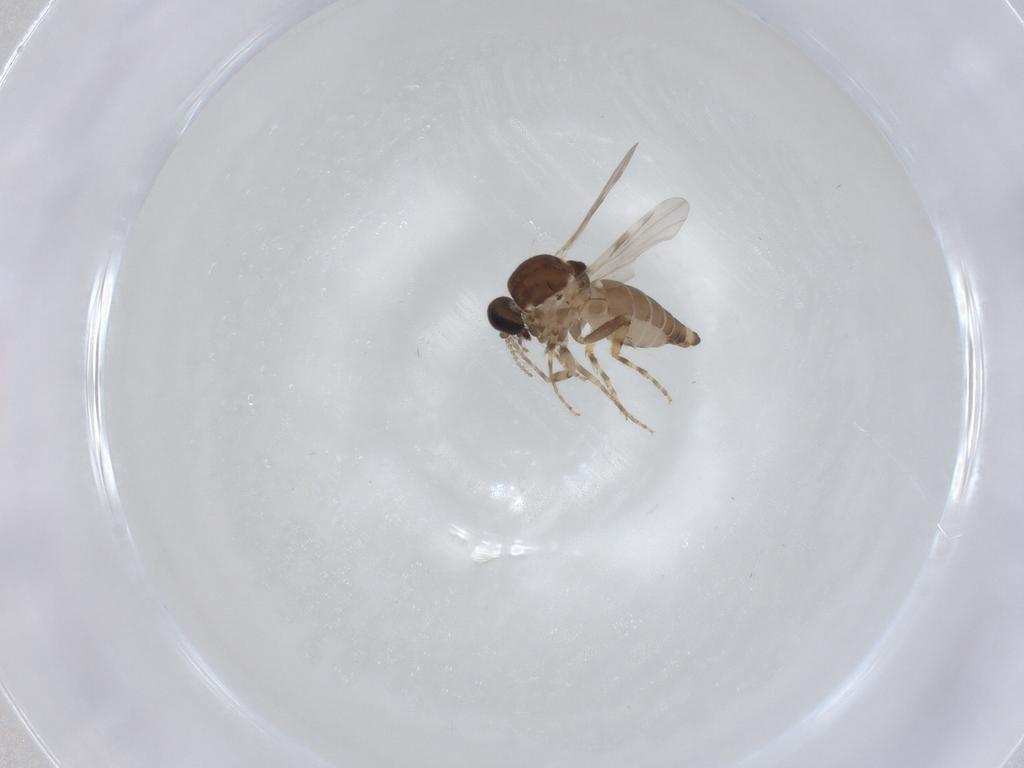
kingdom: Animalia
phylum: Arthropoda
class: Insecta
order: Diptera
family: Ceratopogonidae
